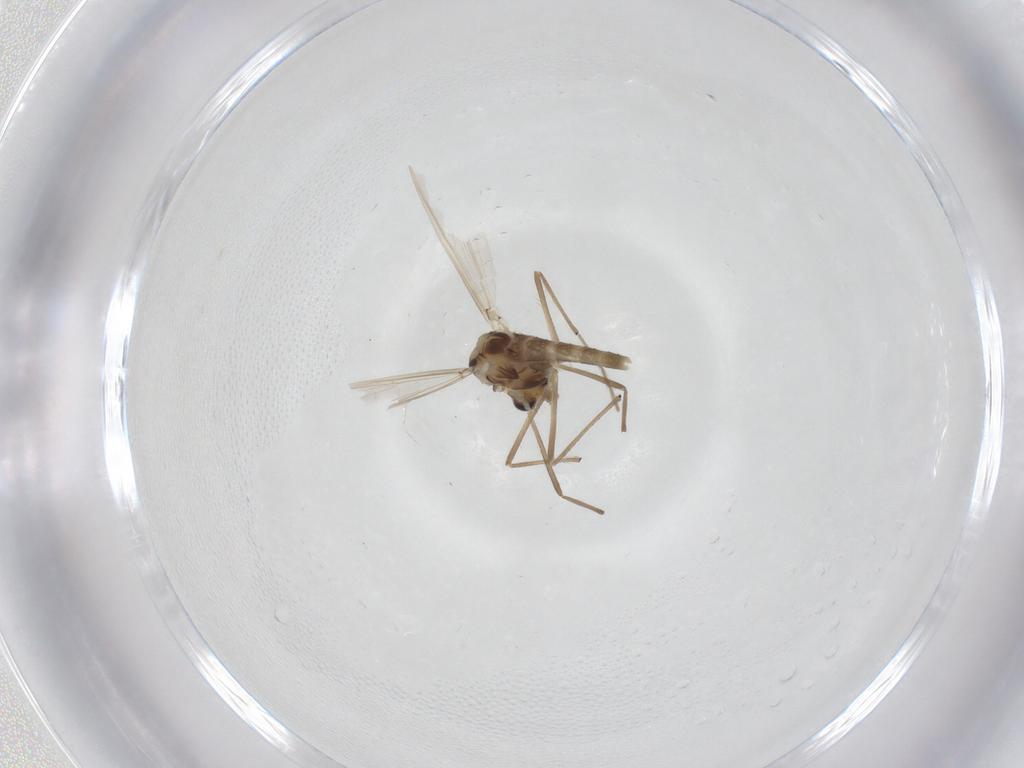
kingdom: Animalia
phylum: Arthropoda
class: Insecta
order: Diptera
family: Chironomidae
